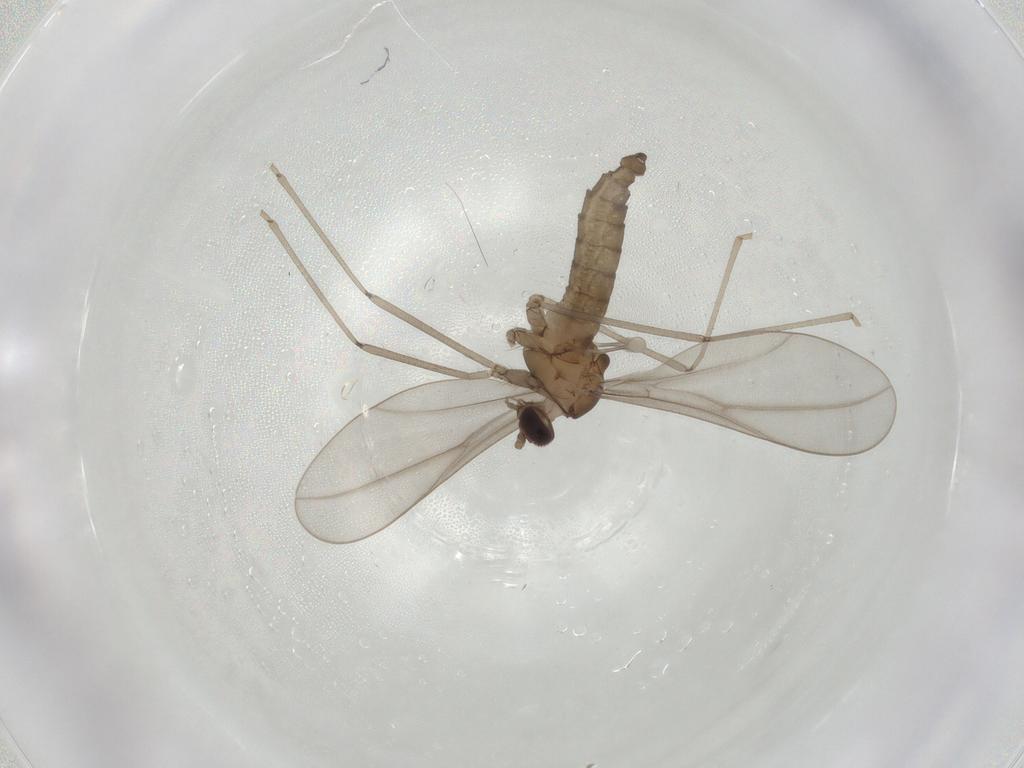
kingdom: Animalia
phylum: Arthropoda
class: Insecta
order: Diptera
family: Cecidomyiidae
